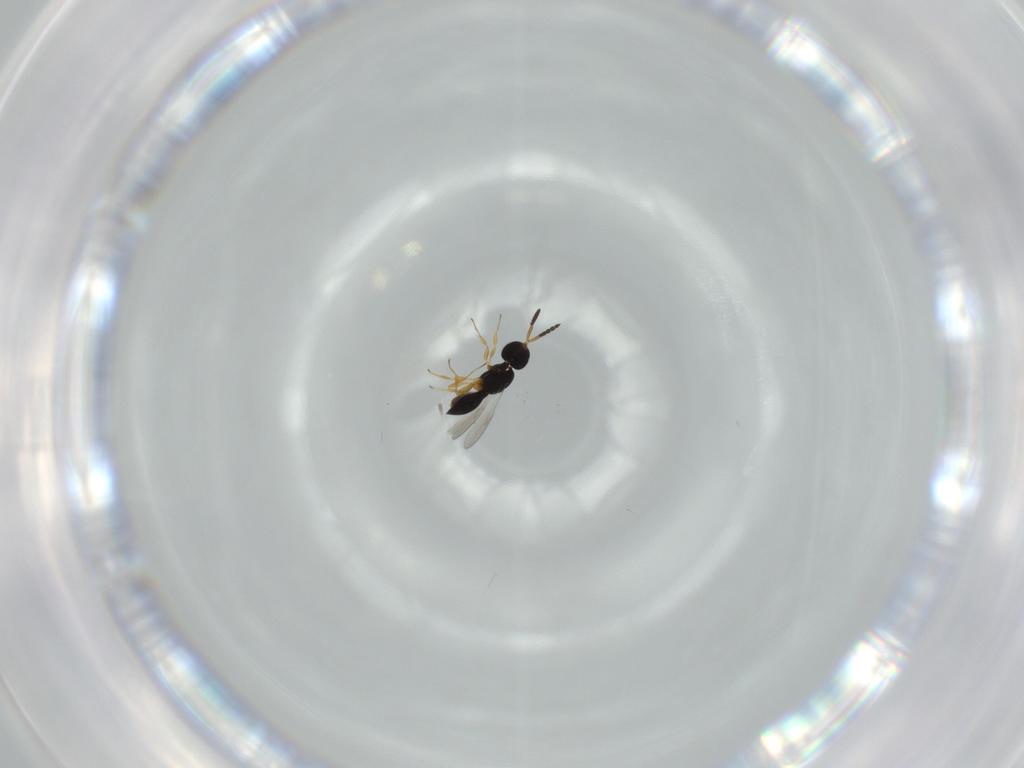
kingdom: Animalia
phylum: Arthropoda
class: Insecta
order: Hymenoptera
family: Scelionidae
